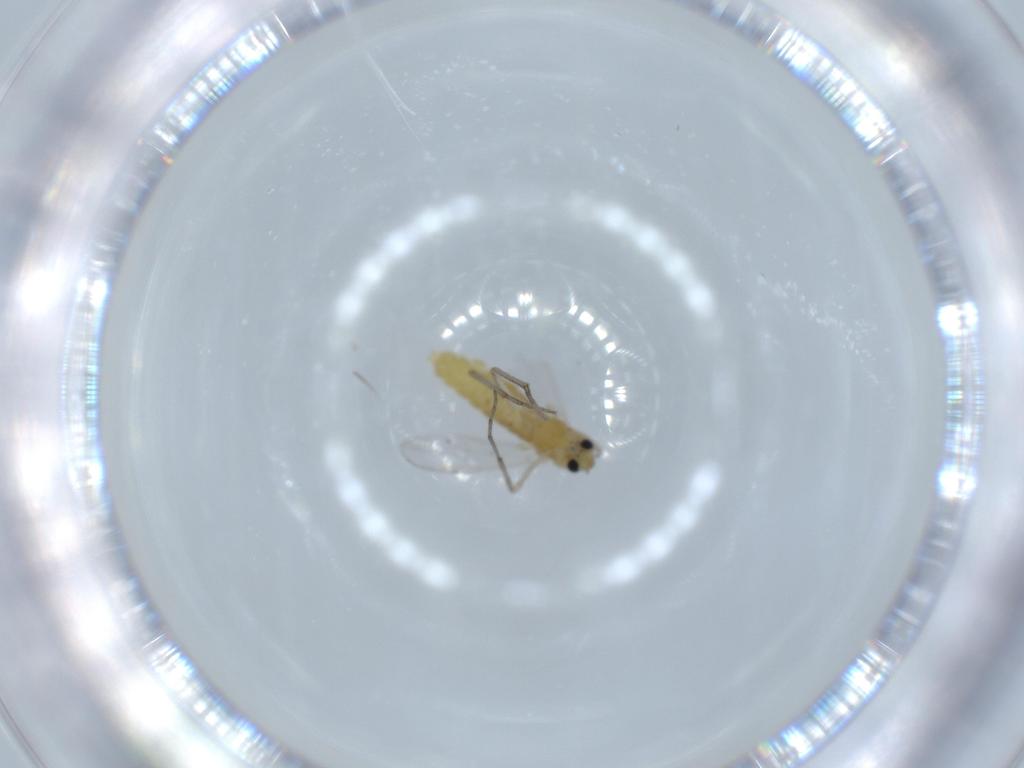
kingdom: Animalia
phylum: Arthropoda
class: Insecta
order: Diptera
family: Chironomidae
